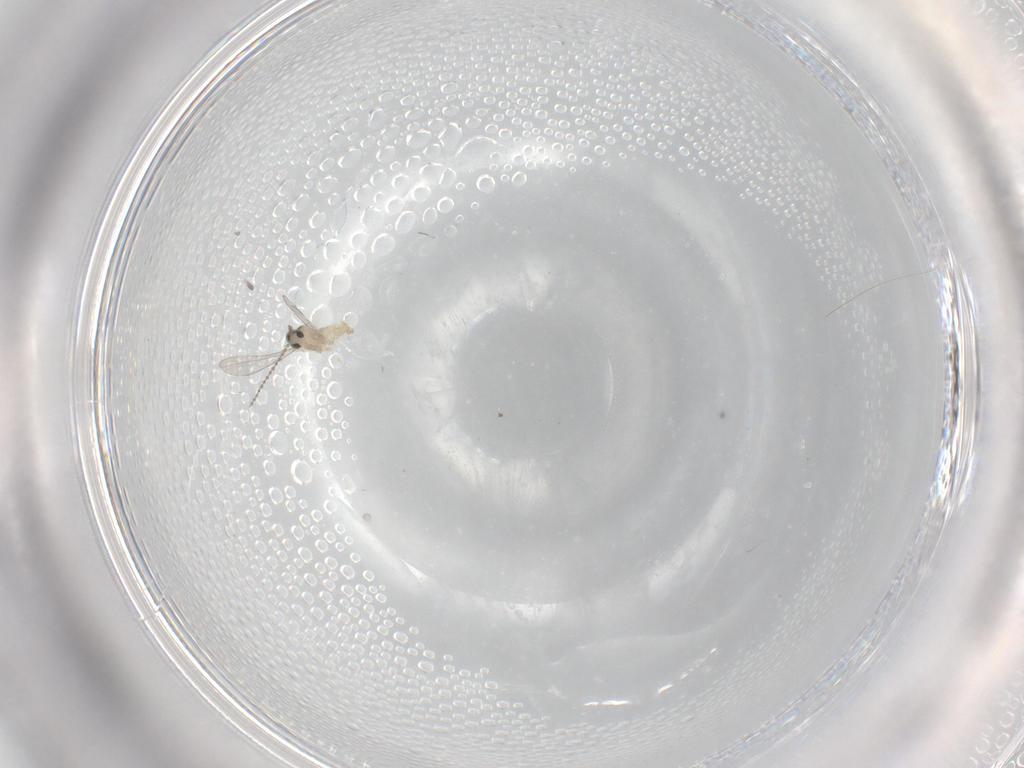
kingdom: Animalia
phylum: Arthropoda
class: Insecta
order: Diptera
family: Cecidomyiidae
